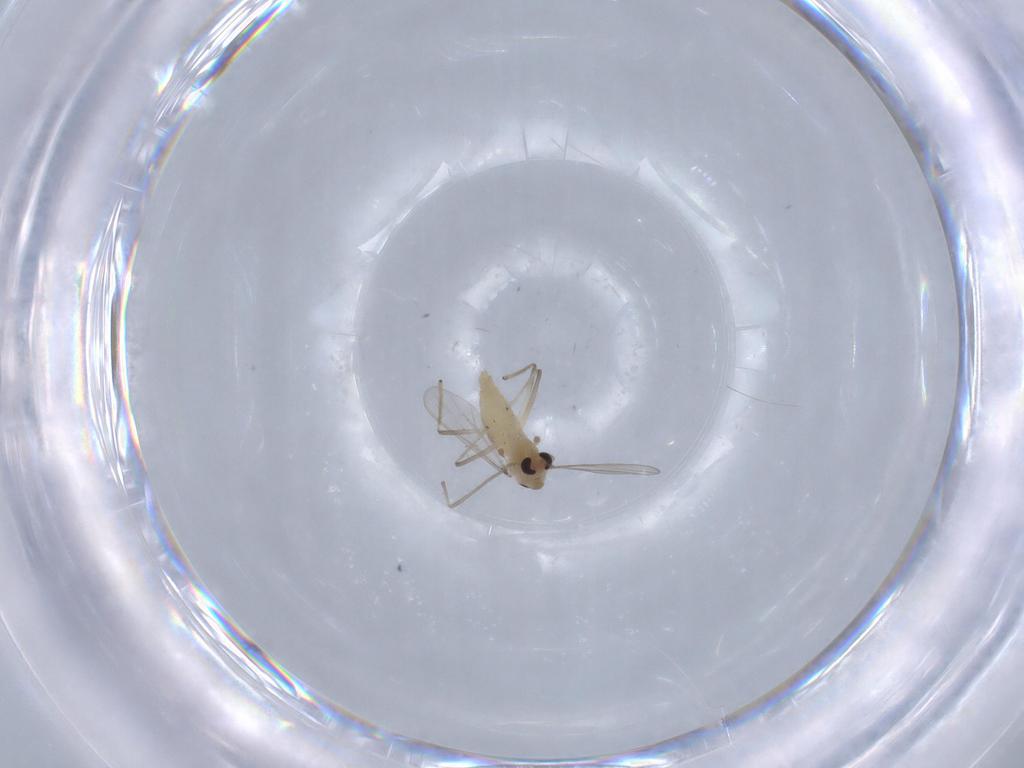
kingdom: Animalia
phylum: Arthropoda
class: Insecta
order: Diptera
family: Chironomidae
